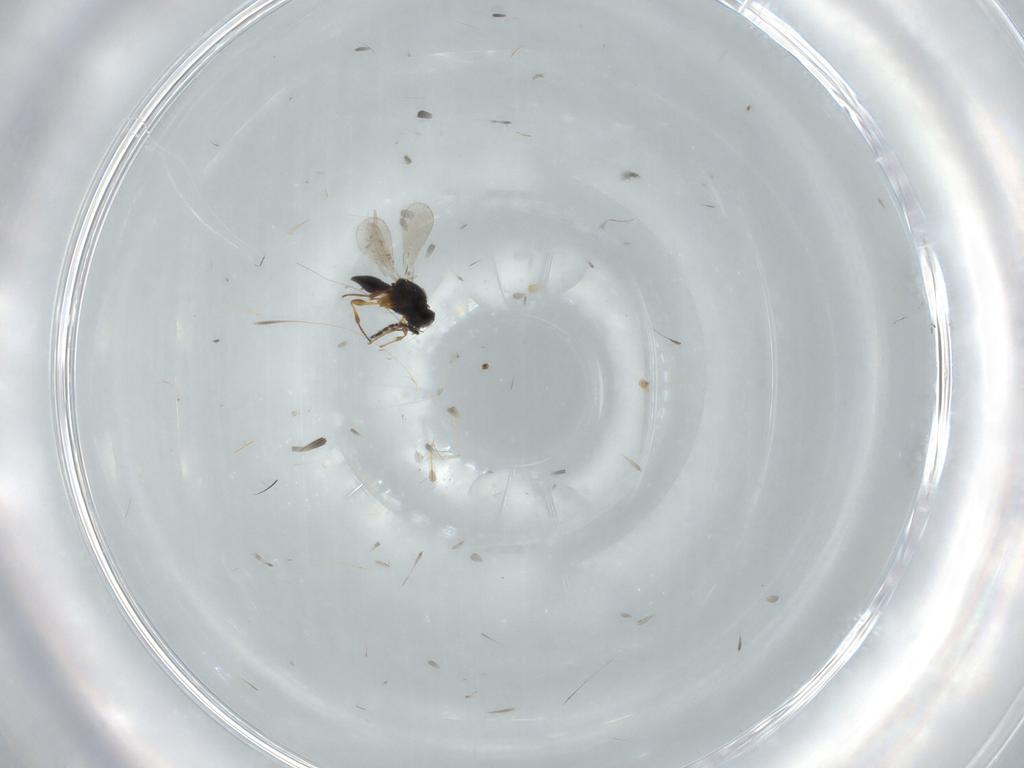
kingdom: Animalia
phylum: Arthropoda
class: Insecta
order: Hymenoptera
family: Platygastridae
